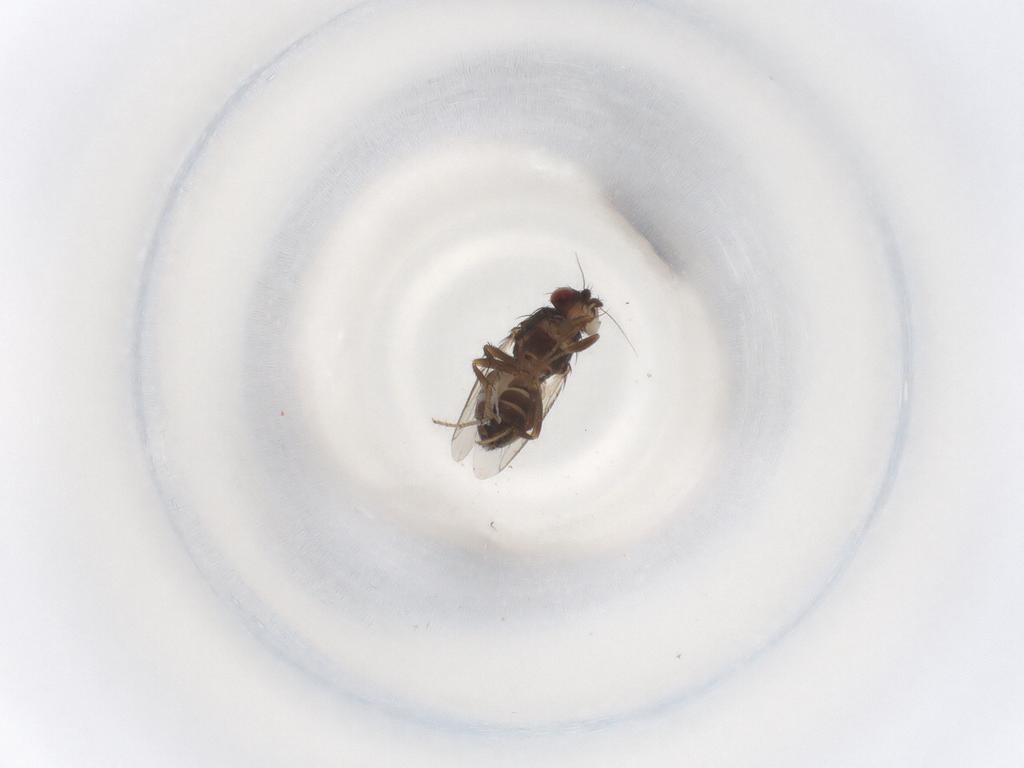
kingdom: Animalia
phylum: Arthropoda
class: Insecta
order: Diptera
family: Sphaeroceridae
